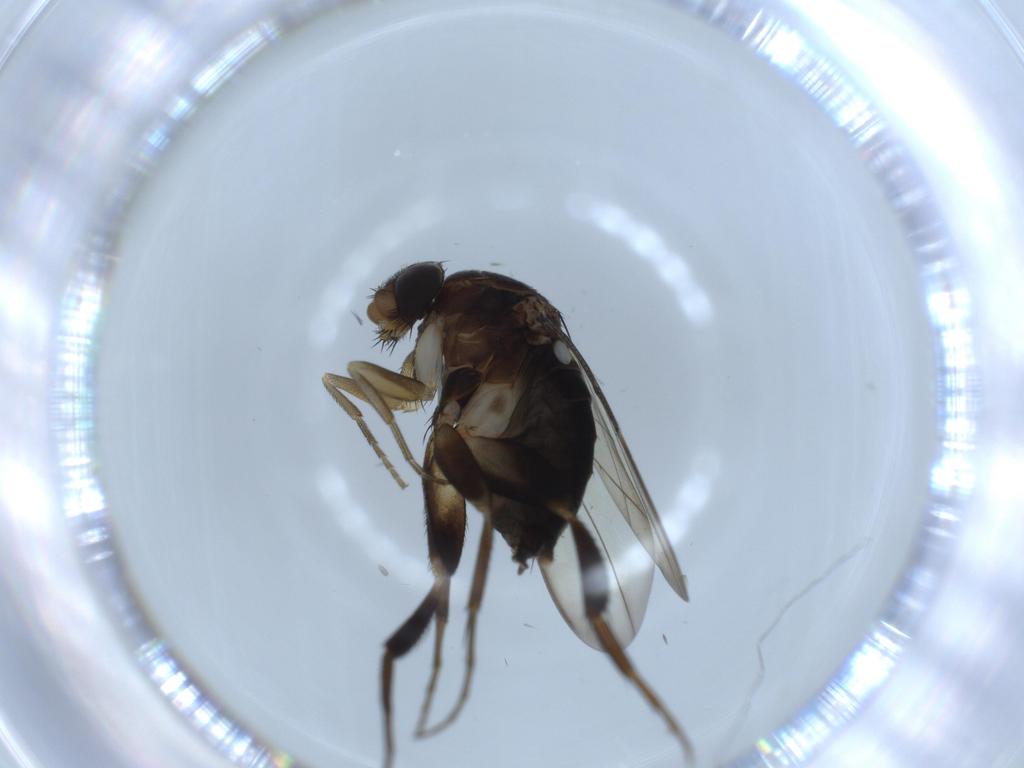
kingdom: Animalia
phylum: Arthropoda
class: Insecta
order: Diptera
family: Phoridae
